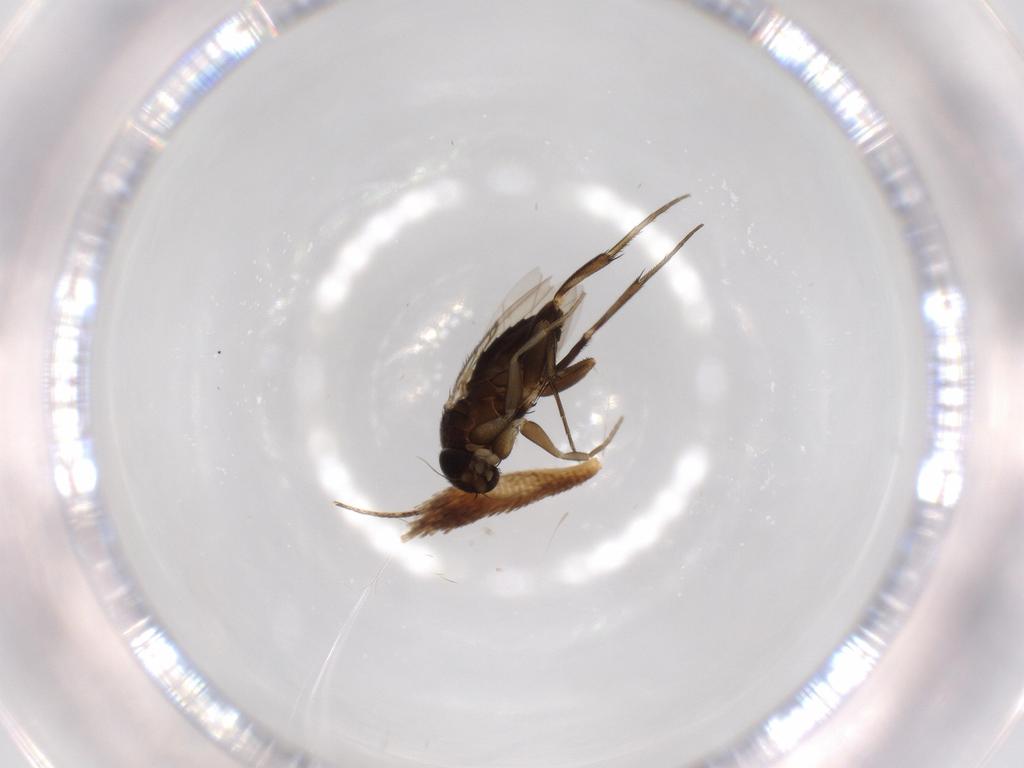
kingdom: Animalia
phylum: Arthropoda
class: Insecta
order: Diptera
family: Phoridae
